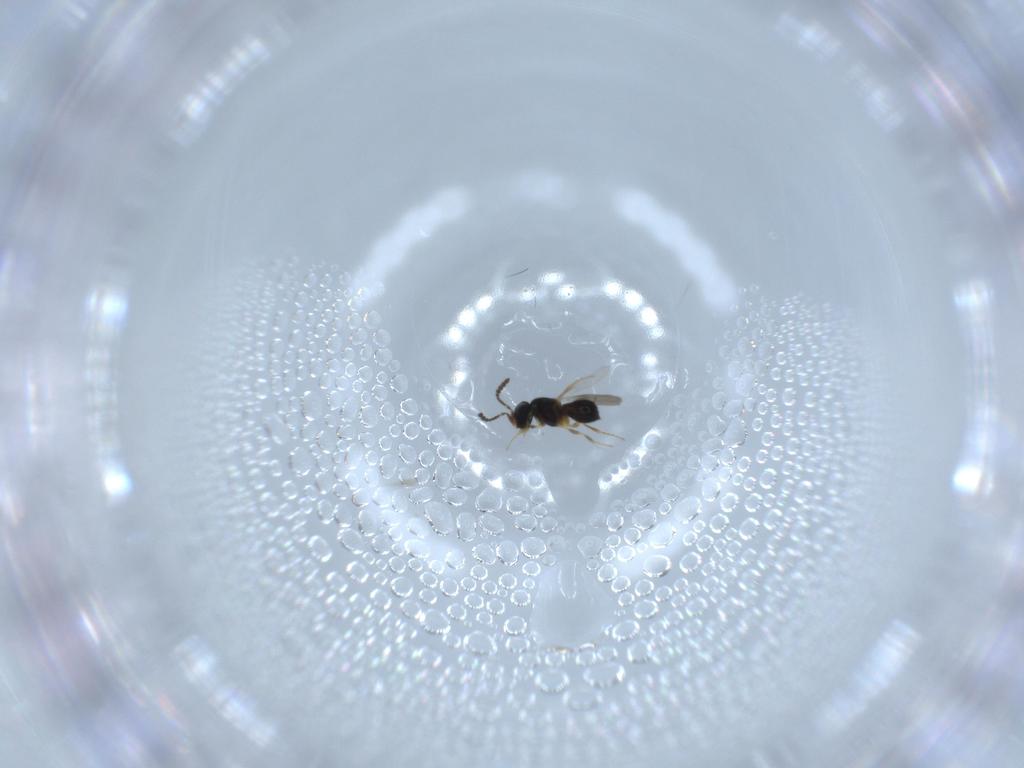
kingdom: Animalia
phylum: Arthropoda
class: Insecta
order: Hymenoptera
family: Scelionidae
